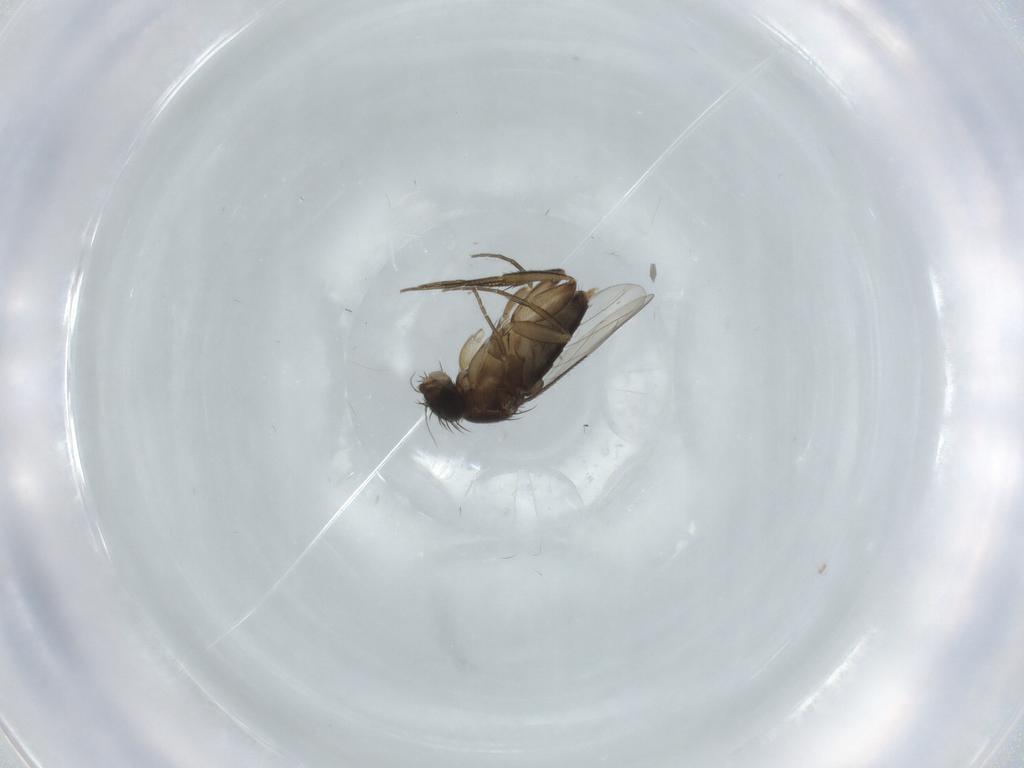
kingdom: Animalia
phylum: Arthropoda
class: Insecta
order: Diptera
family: Phoridae
